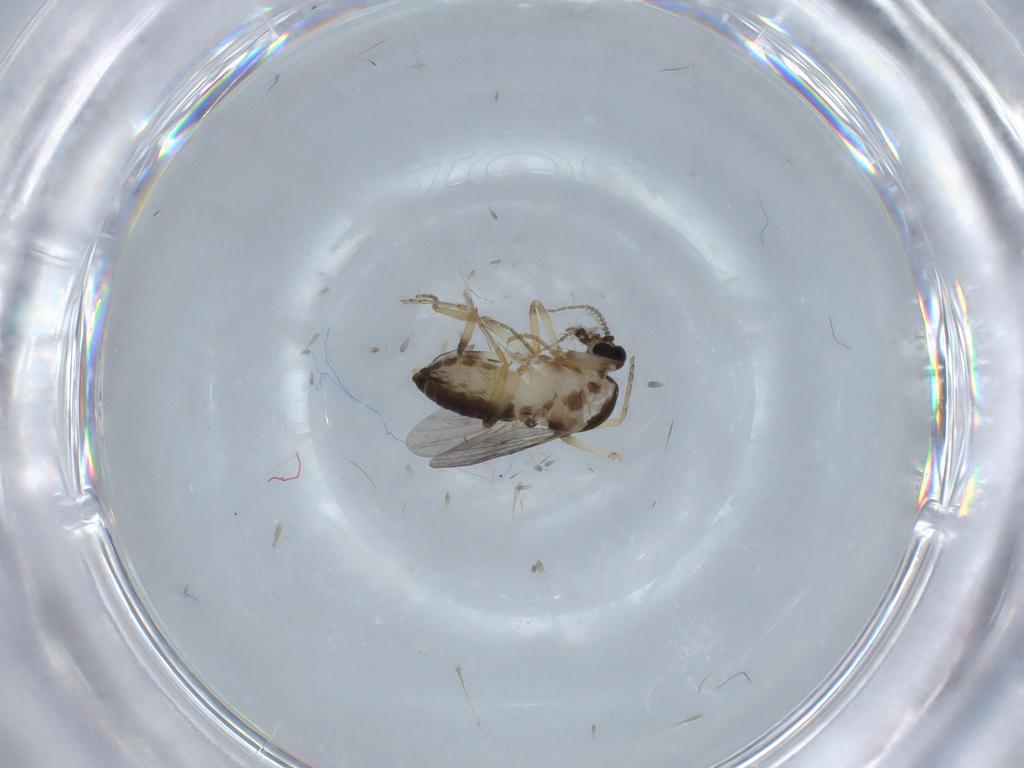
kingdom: Animalia
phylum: Arthropoda
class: Insecta
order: Diptera
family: Ceratopogonidae
